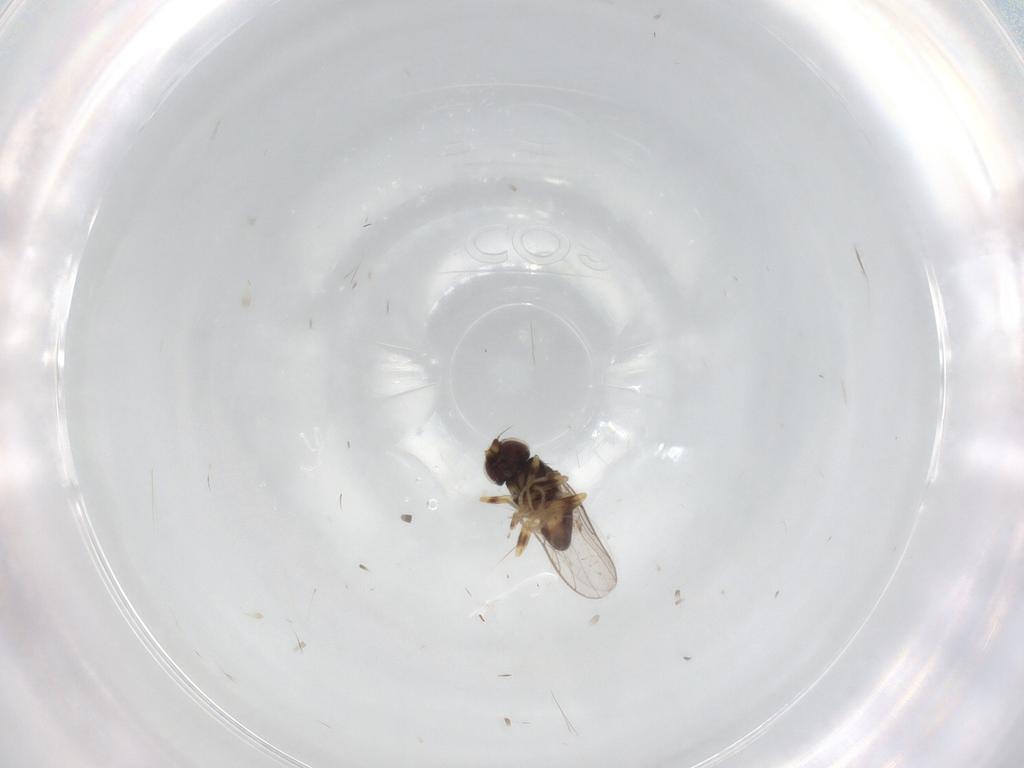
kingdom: Animalia
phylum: Arthropoda
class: Insecta
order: Diptera
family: Chloropidae
